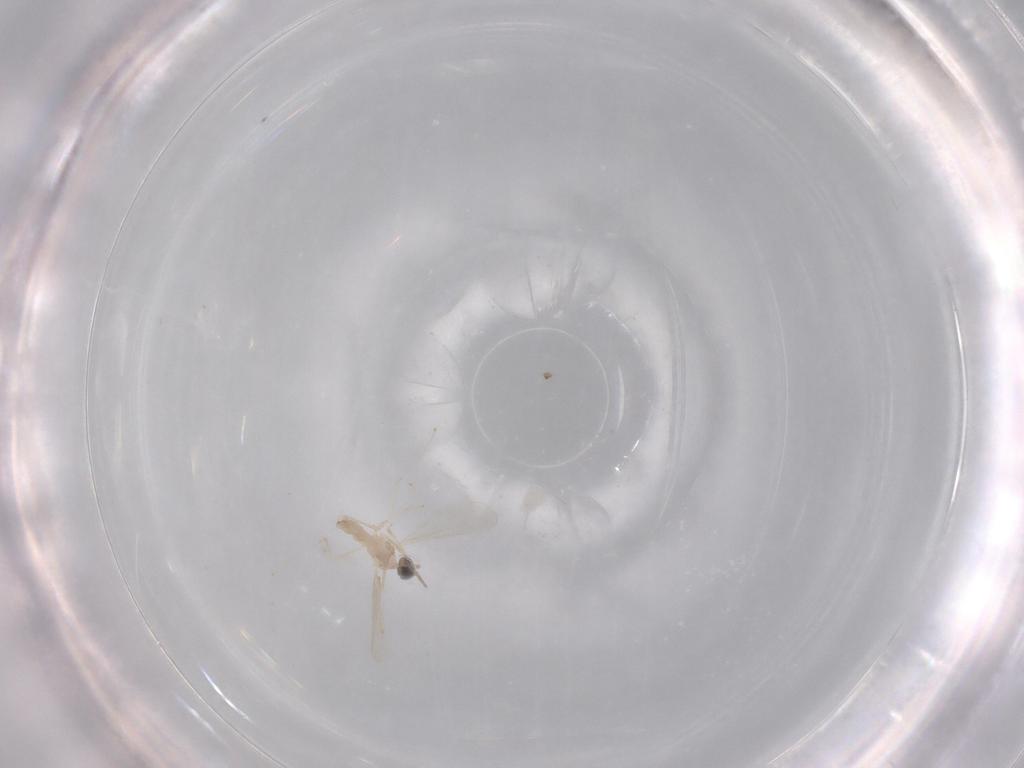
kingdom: Animalia
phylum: Arthropoda
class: Insecta
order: Diptera
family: Cecidomyiidae
